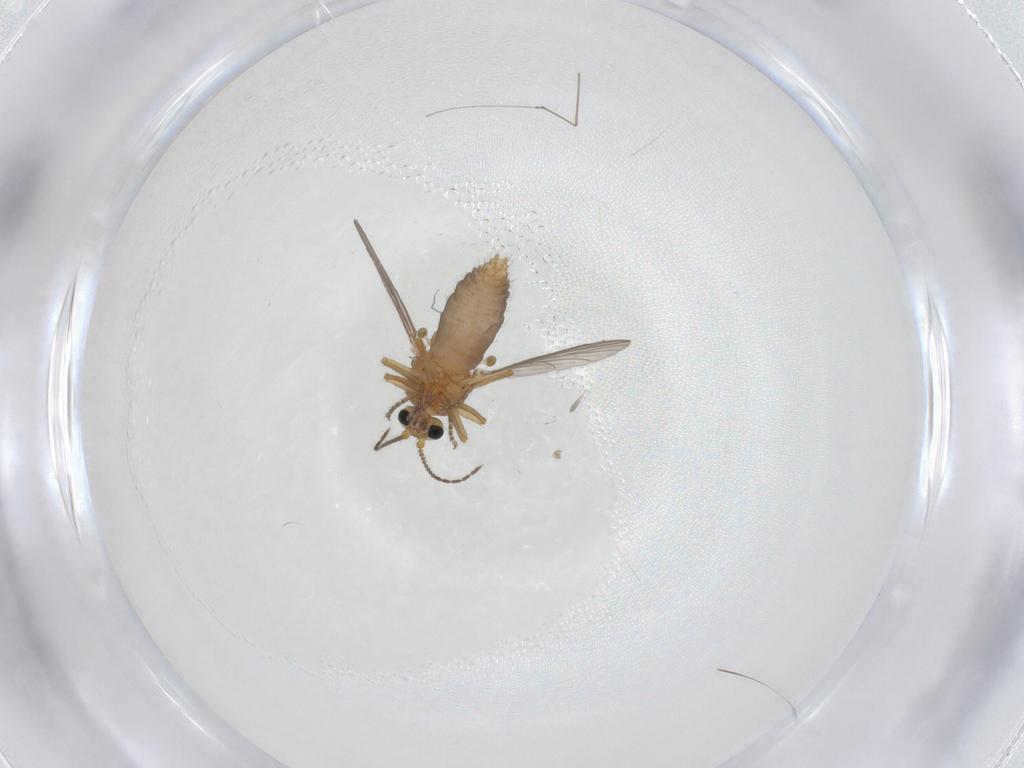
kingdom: Animalia
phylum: Arthropoda
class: Insecta
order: Diptera
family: Ceratopogonidae
